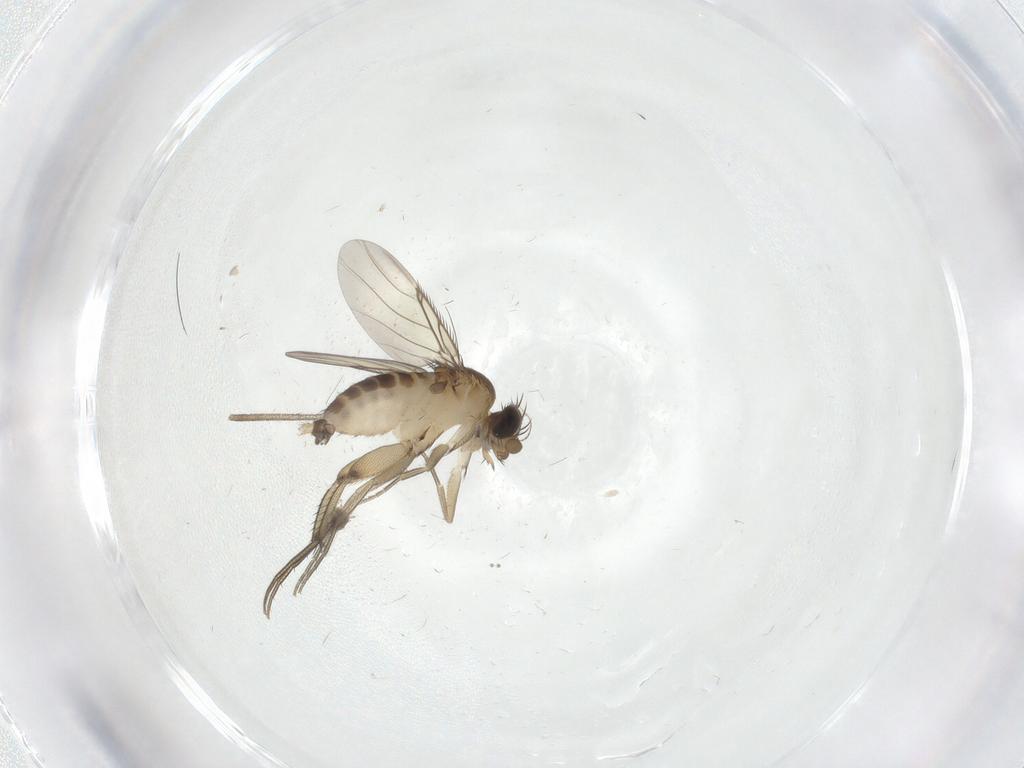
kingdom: Animalia
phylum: Arthropoda
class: Insecta
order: Diptera
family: Phoridae
